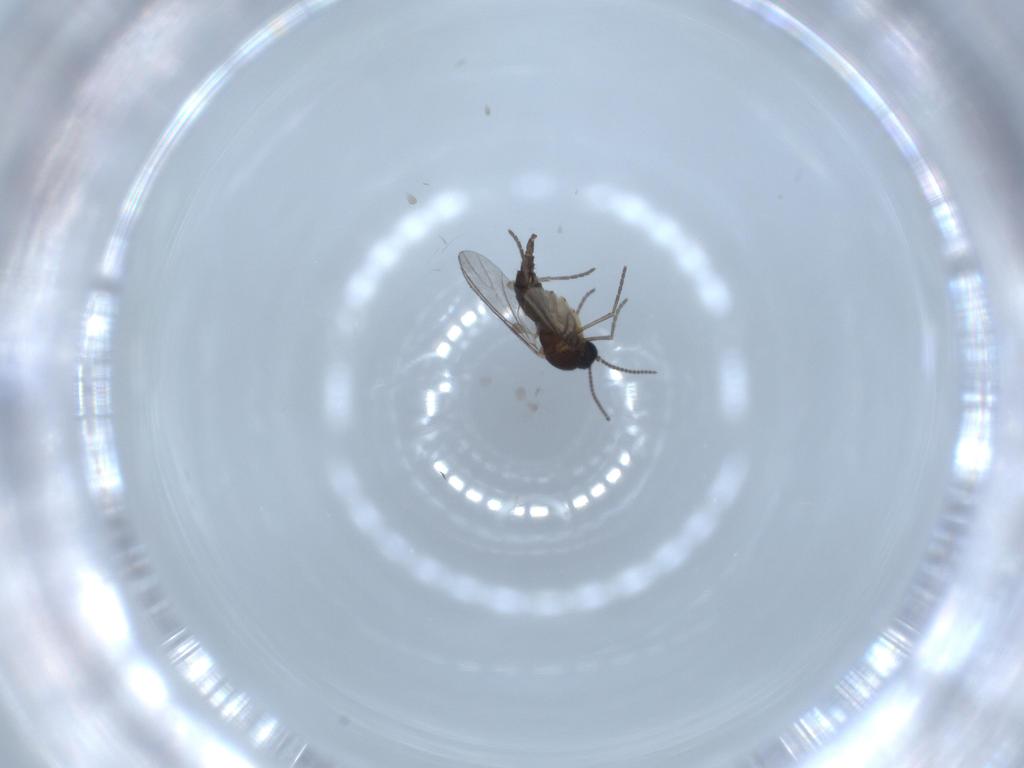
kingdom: Animalia
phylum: Arthropoda
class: Insecta
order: Diptera
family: Sciaridae
